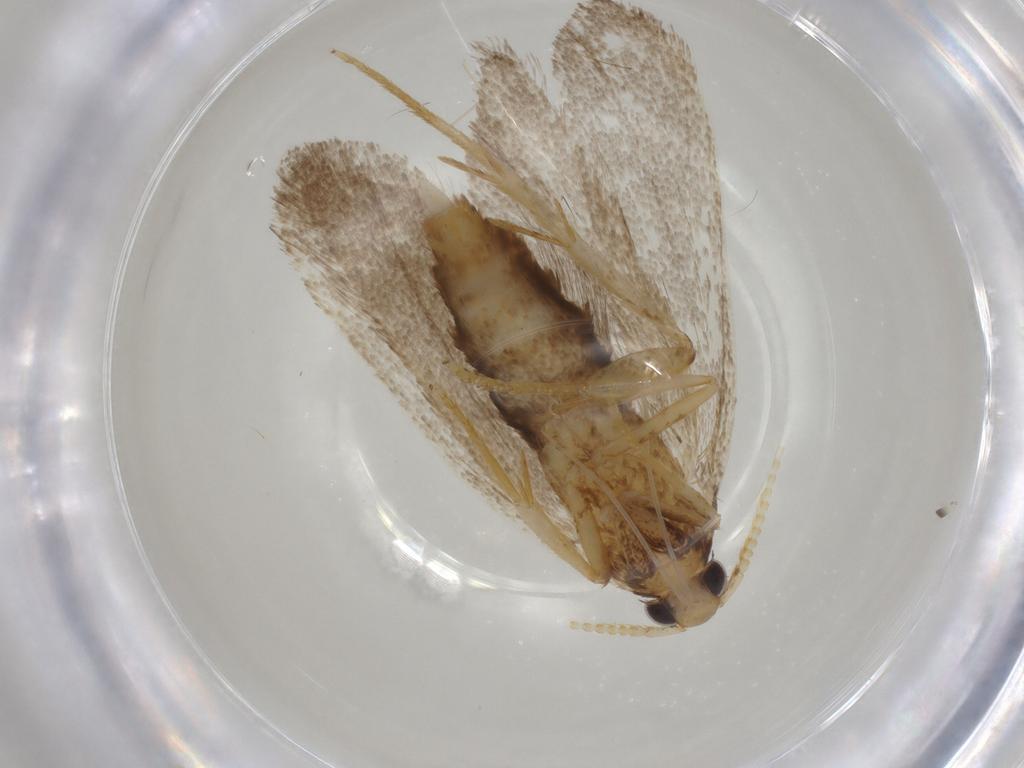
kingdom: Animalia
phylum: Arthropoda
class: Insecta
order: Lepidoptera
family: Lecithoceridae
